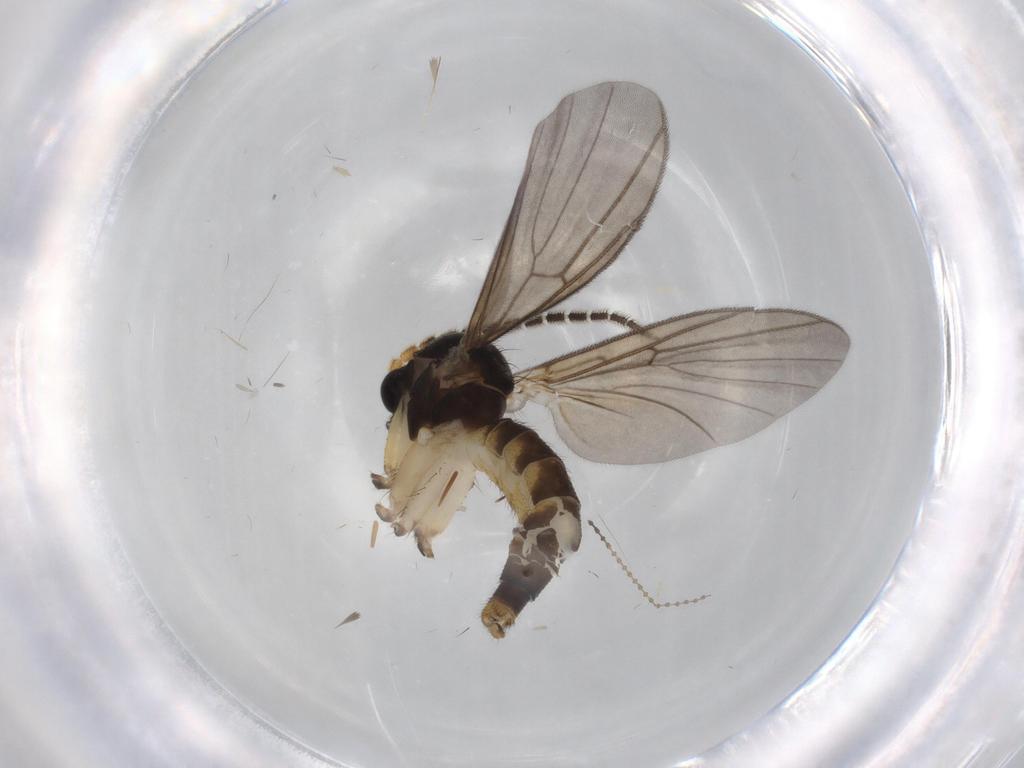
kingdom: Animalia
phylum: Arthropoda
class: Insecta
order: Diptera
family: Chironomidae
